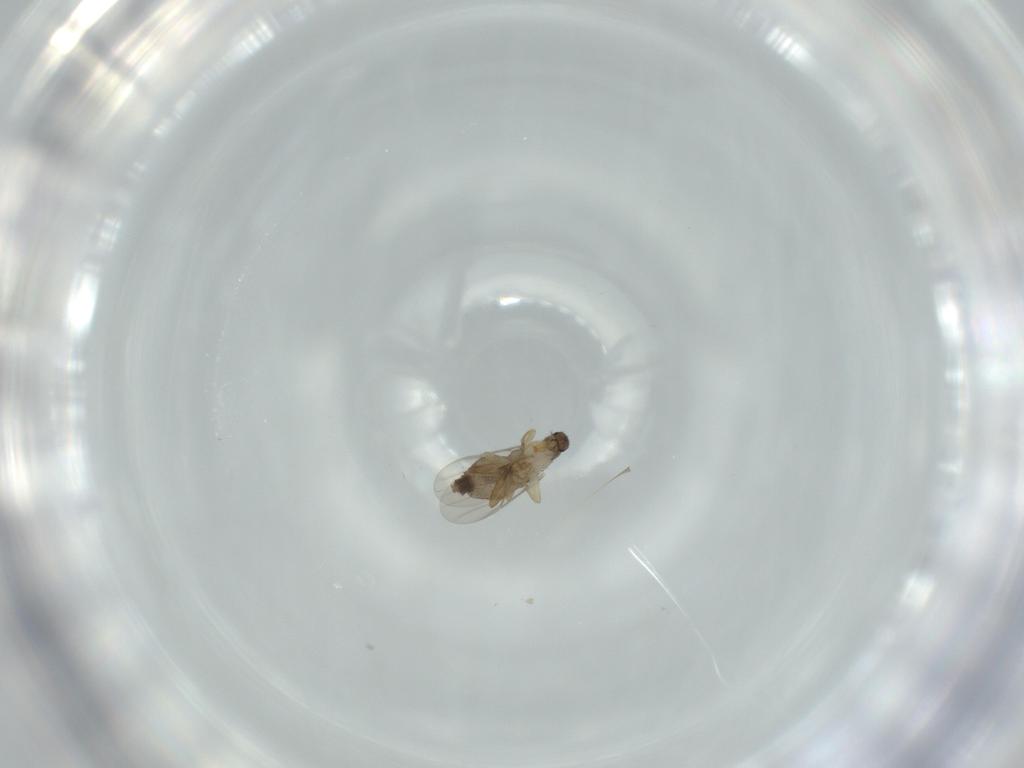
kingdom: Animalia
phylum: Arthropoda
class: Insecta
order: Diptera
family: Phoridae
